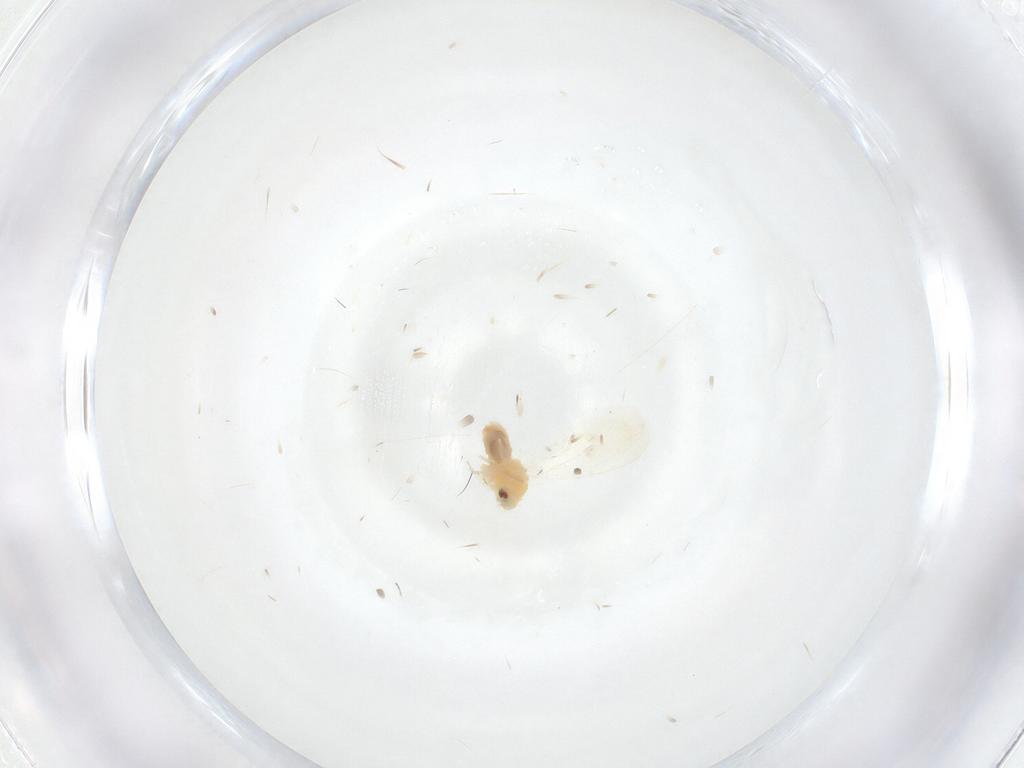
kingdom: Animalia
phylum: Arthropoda
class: Insecta
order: Hemiptera
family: Aleyrodidae
